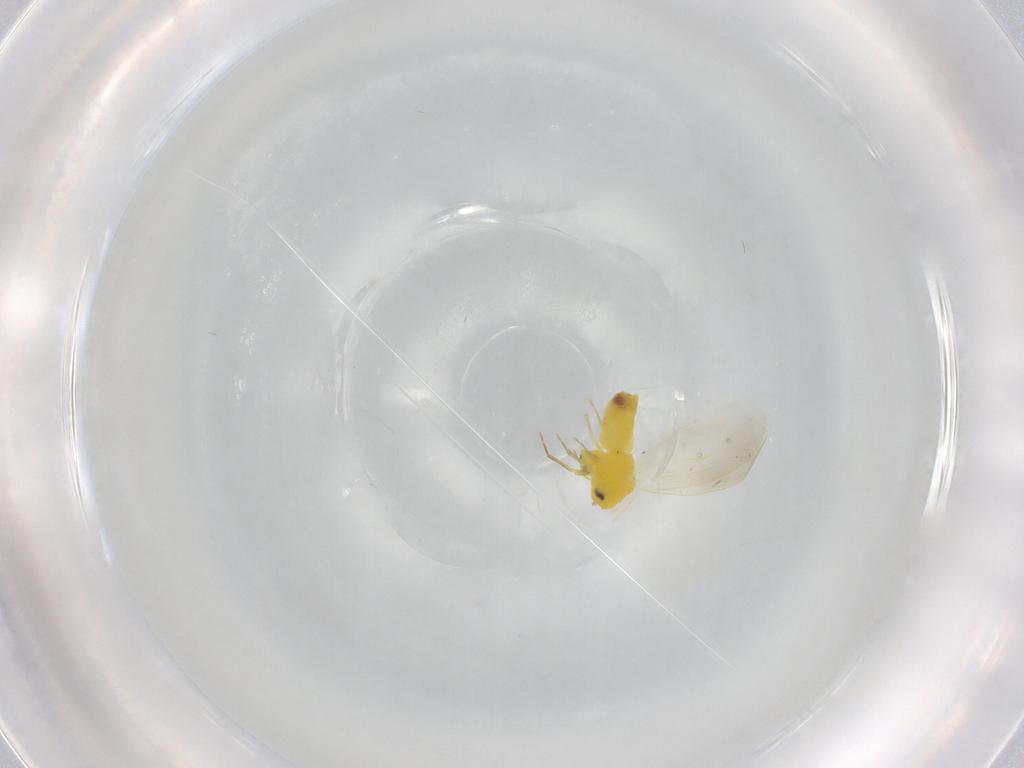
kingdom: Animalia
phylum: Arthropoda
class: Insecta
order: Hemiptera
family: Aleyrodidae
